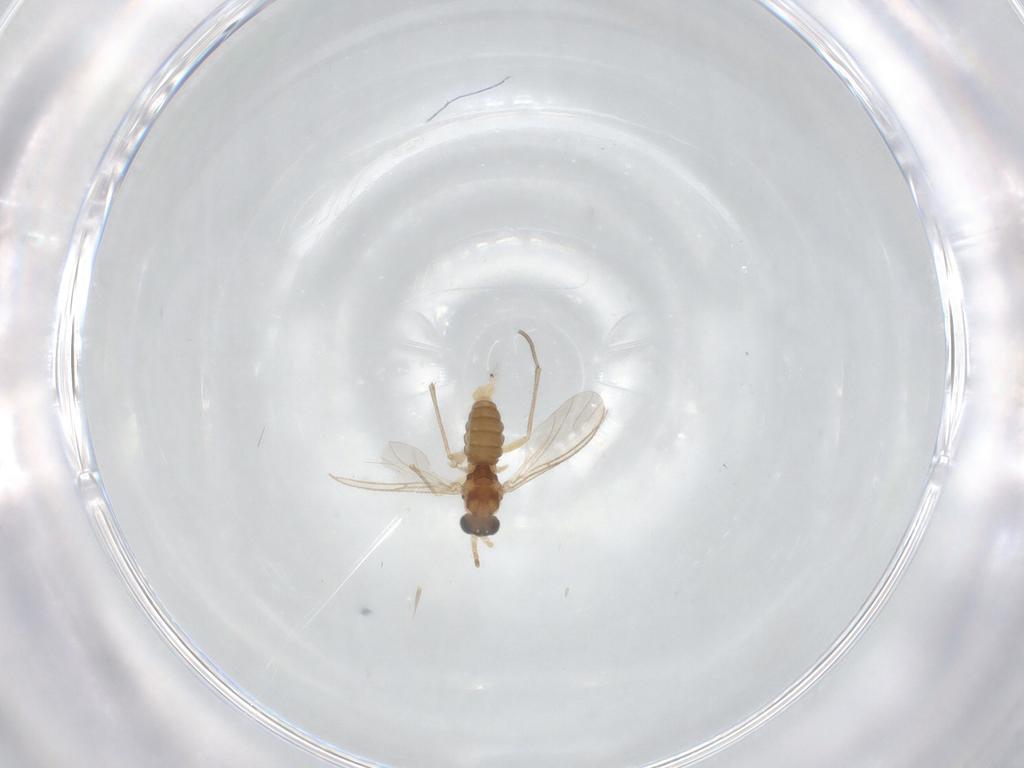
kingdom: Animalia
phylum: Arthropoda
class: Insecta
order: Diptera
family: Sciaridae
